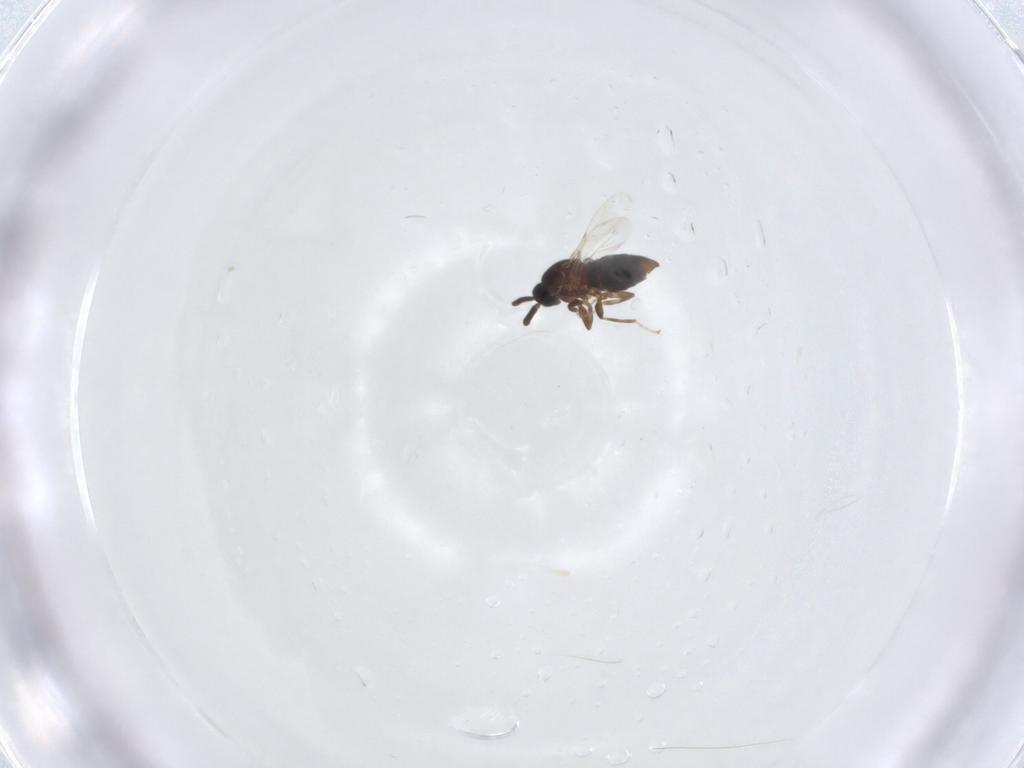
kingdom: Animalia
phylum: Arthropoda
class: Insecta
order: Diptera
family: Scatopsidae
